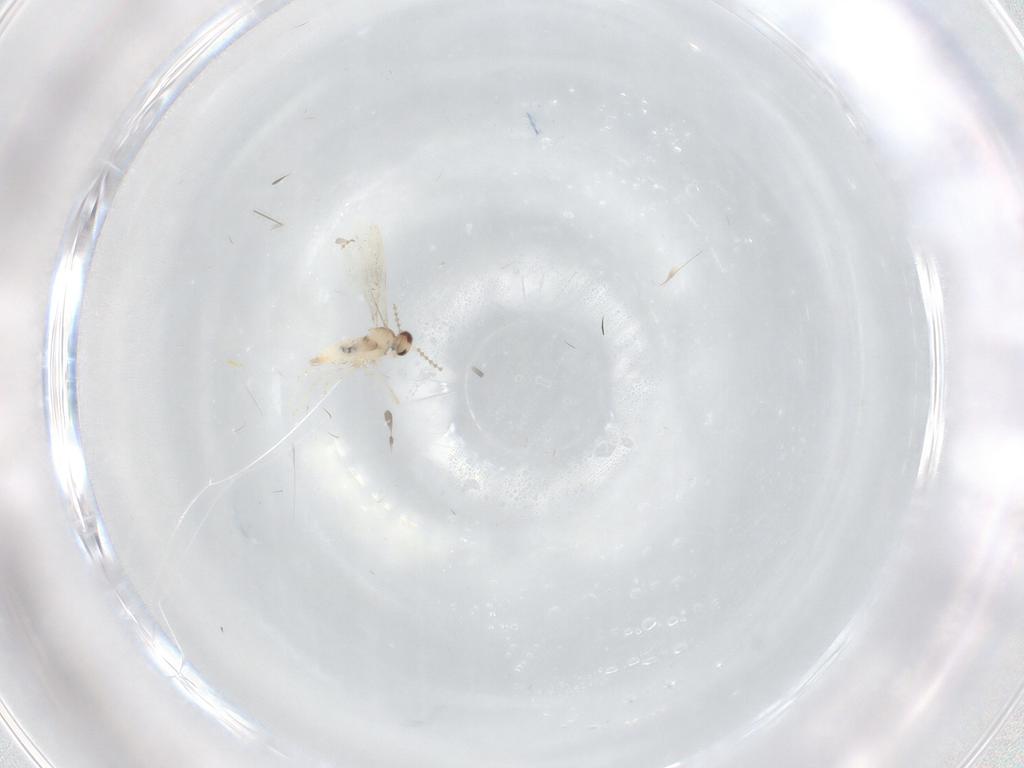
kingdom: Animalia
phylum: Arthropoda
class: Insecta
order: Diptera
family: Cecidomyiidae
